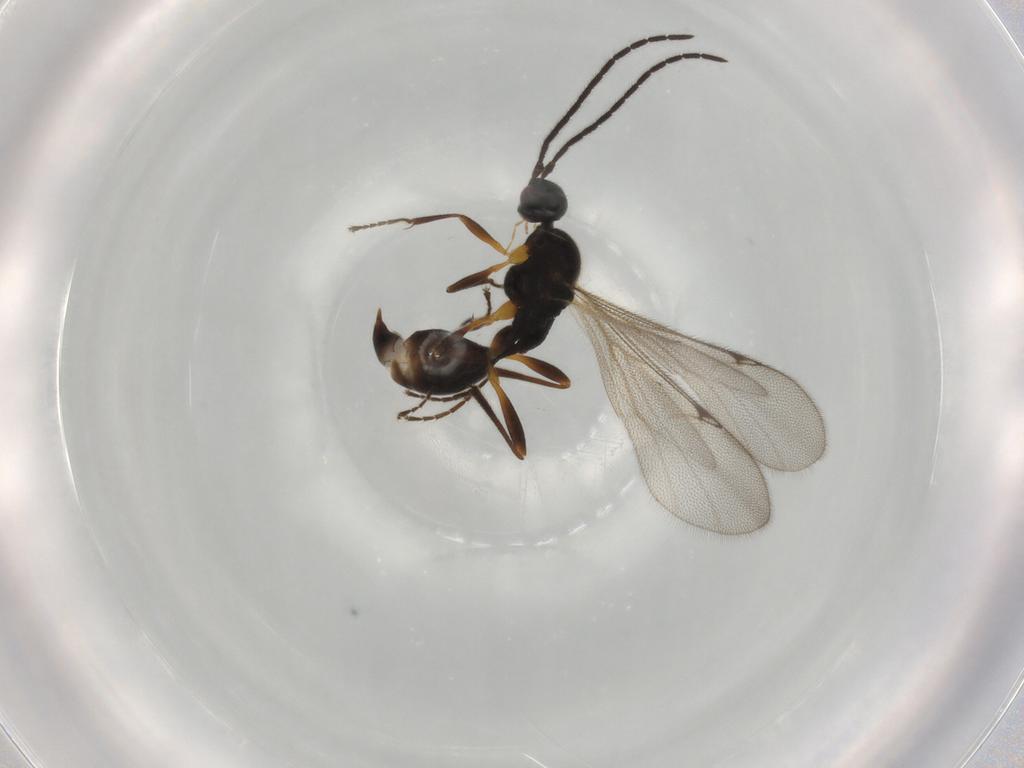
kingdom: Animalia
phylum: Arthropoda
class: Insecta
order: Hymenoptera
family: Proctotrupidae
